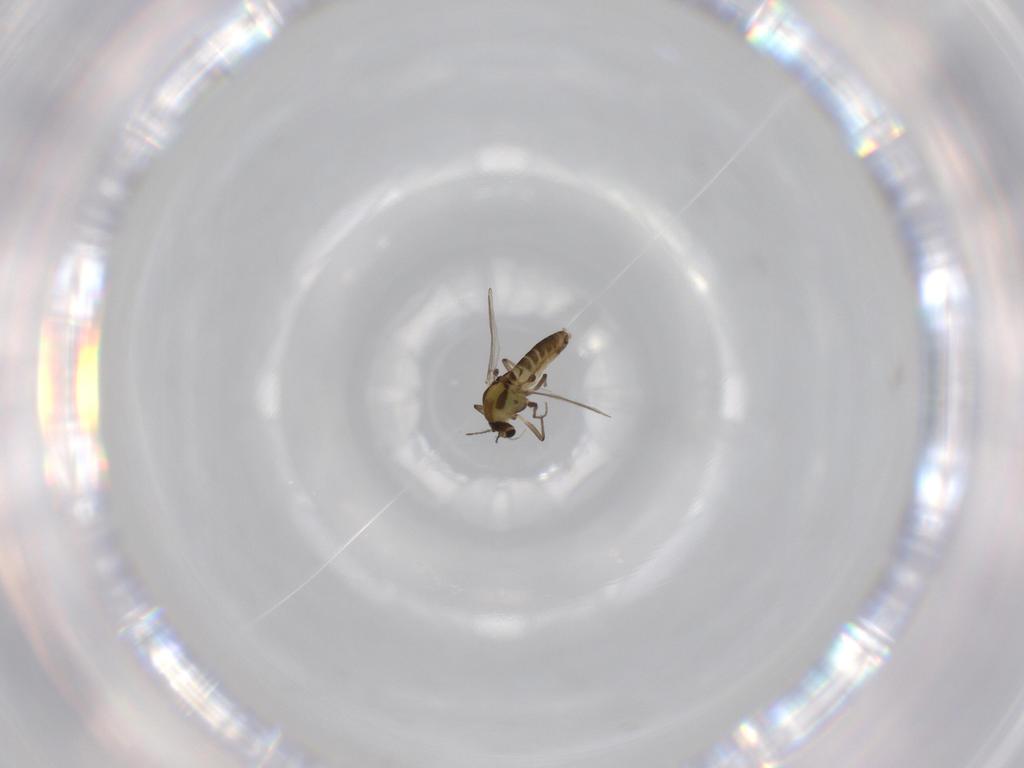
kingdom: Animalia
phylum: Arthropoda
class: Insecta
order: Diptera
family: Chironomidae
